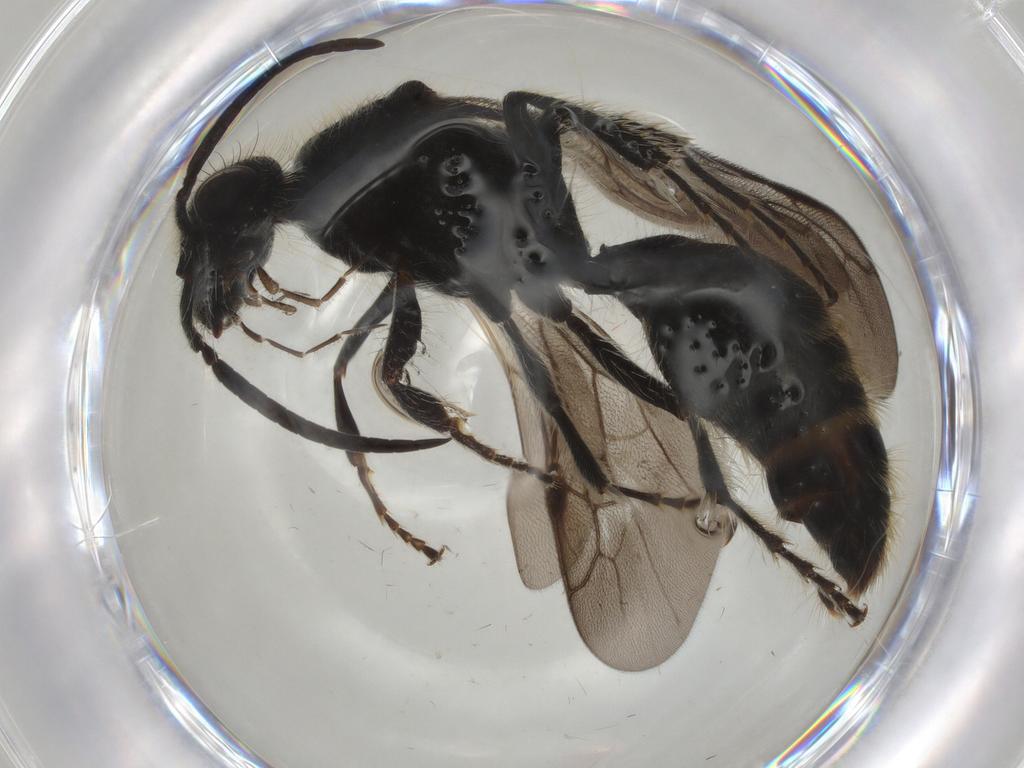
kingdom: Animalia
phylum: Arthropoda
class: Insecta
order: Hymenoptera
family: Mutillidae
